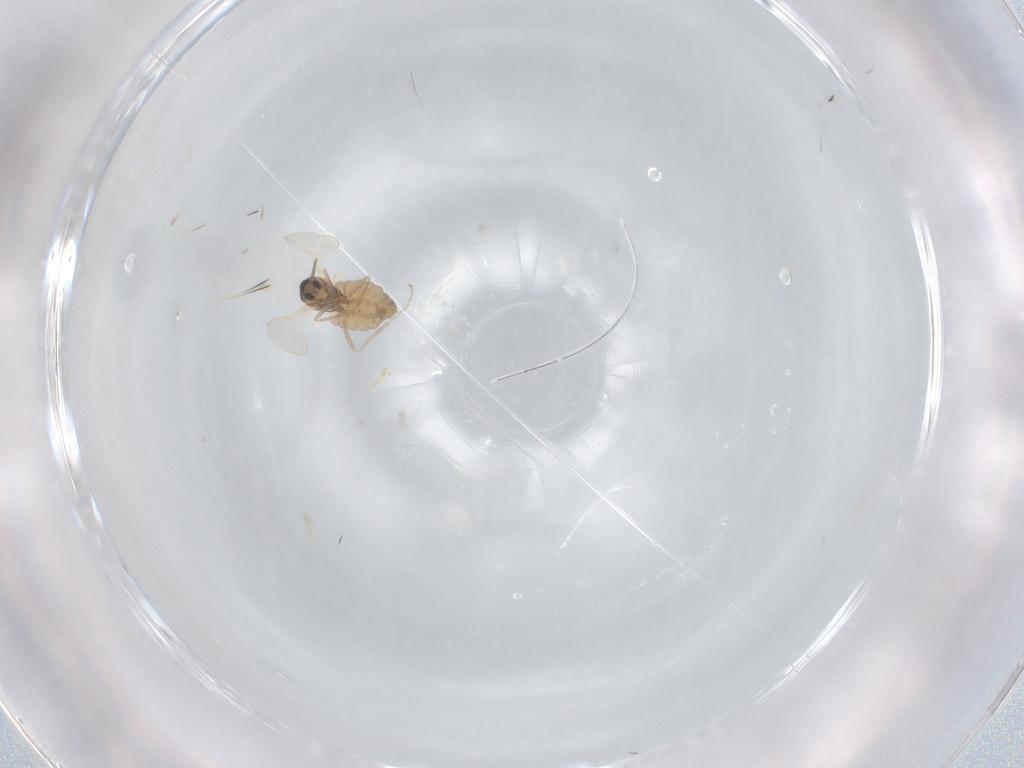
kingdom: Animalia
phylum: Arthropoda
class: Insecta
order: Diptera
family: Cecidomyiidae
